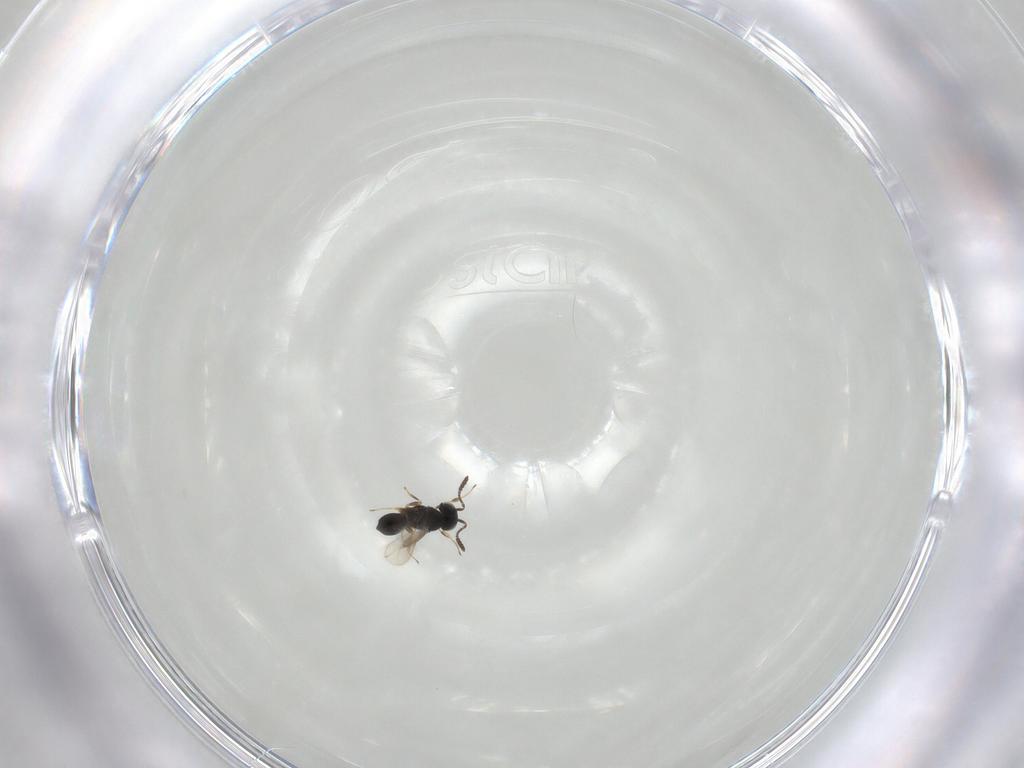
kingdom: Animalia
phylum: Arthropoda
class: Insecta
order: Hymenoptera
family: Scelionidae
